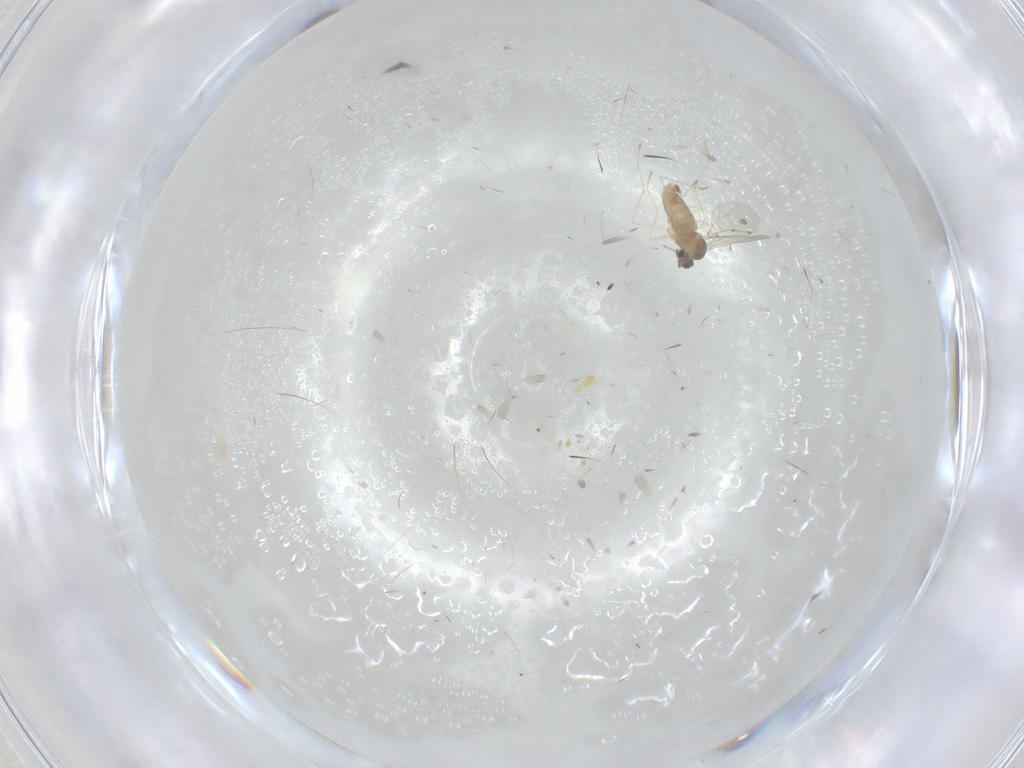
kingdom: Animalia
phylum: Arthropoda
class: Insecta
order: Diptera
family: Cecidomyiidae
